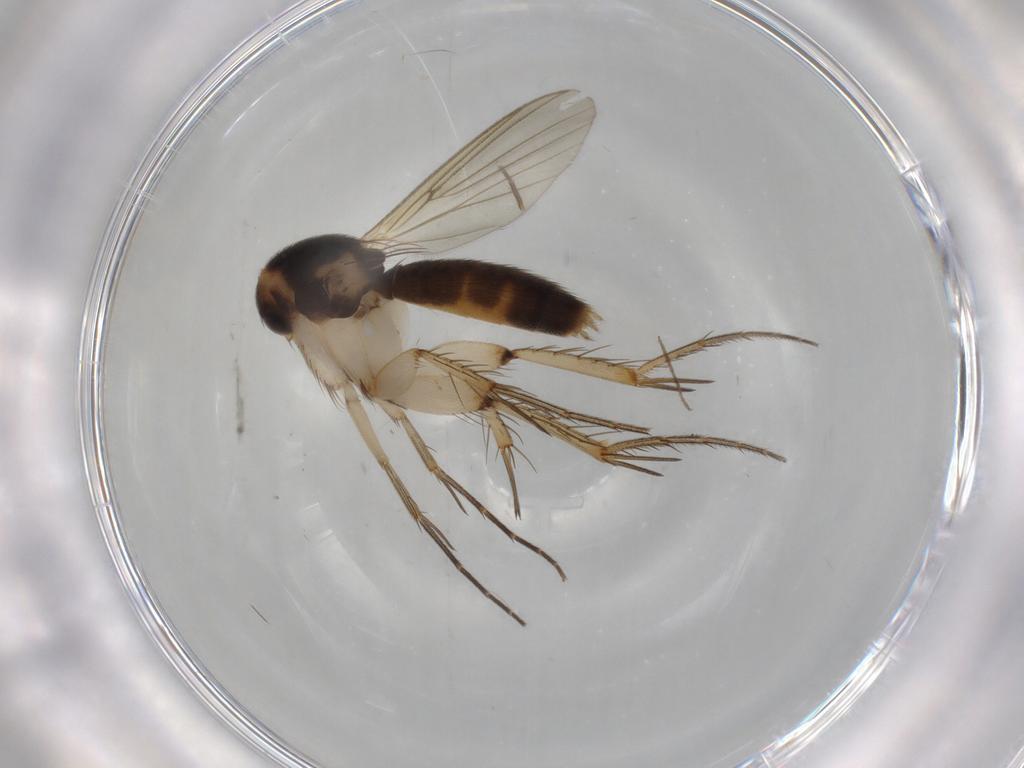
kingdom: Animalia
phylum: Arthropoda
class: Insecta
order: Diptera
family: Mycetophilidae
